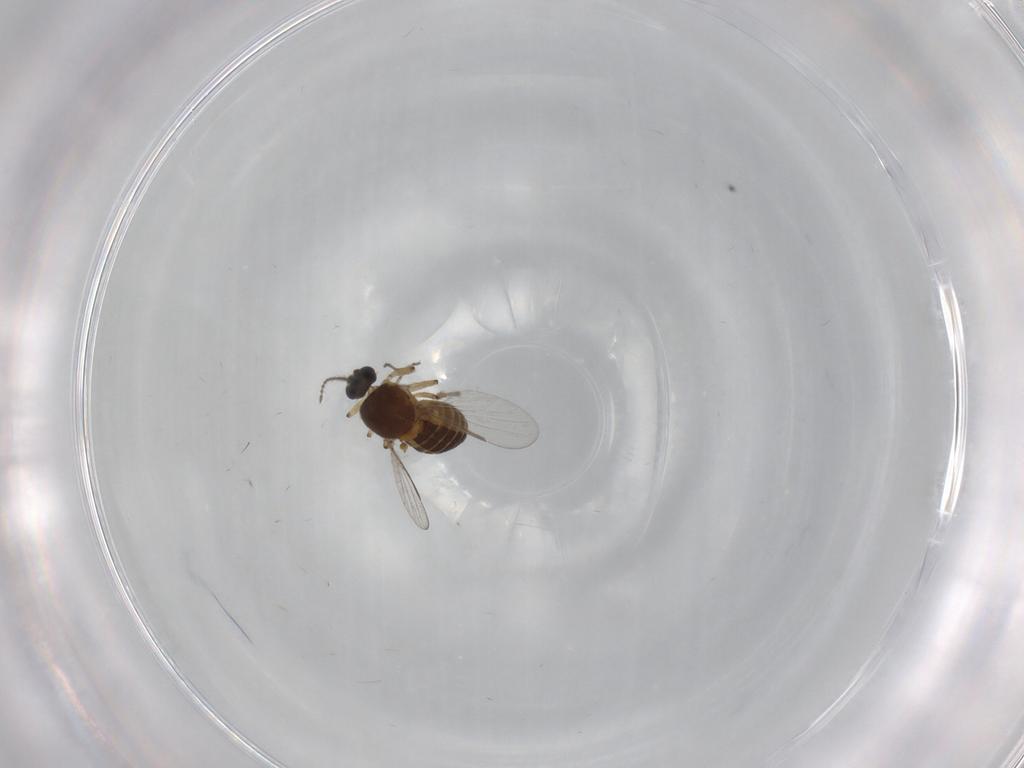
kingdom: Animalia
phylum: Arthropoda
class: Insecta
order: Diptera
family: Ceratopogonidae
